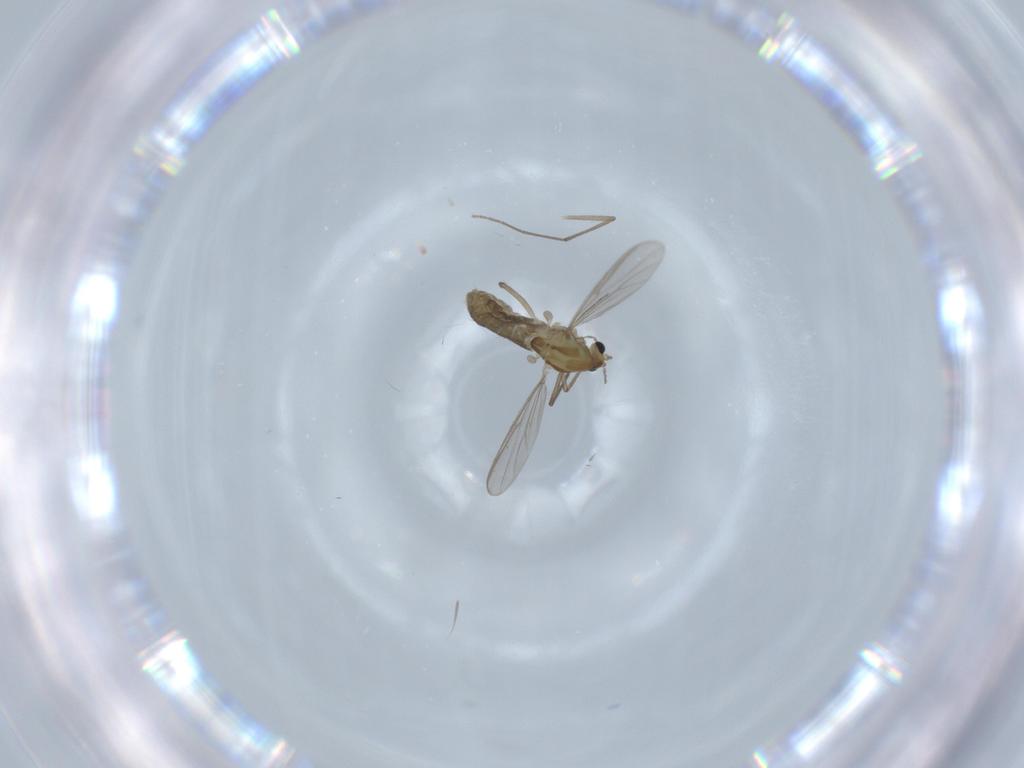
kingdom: Animalia
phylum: Arthropoda
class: Insecta
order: Diptera
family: Chironomidae
